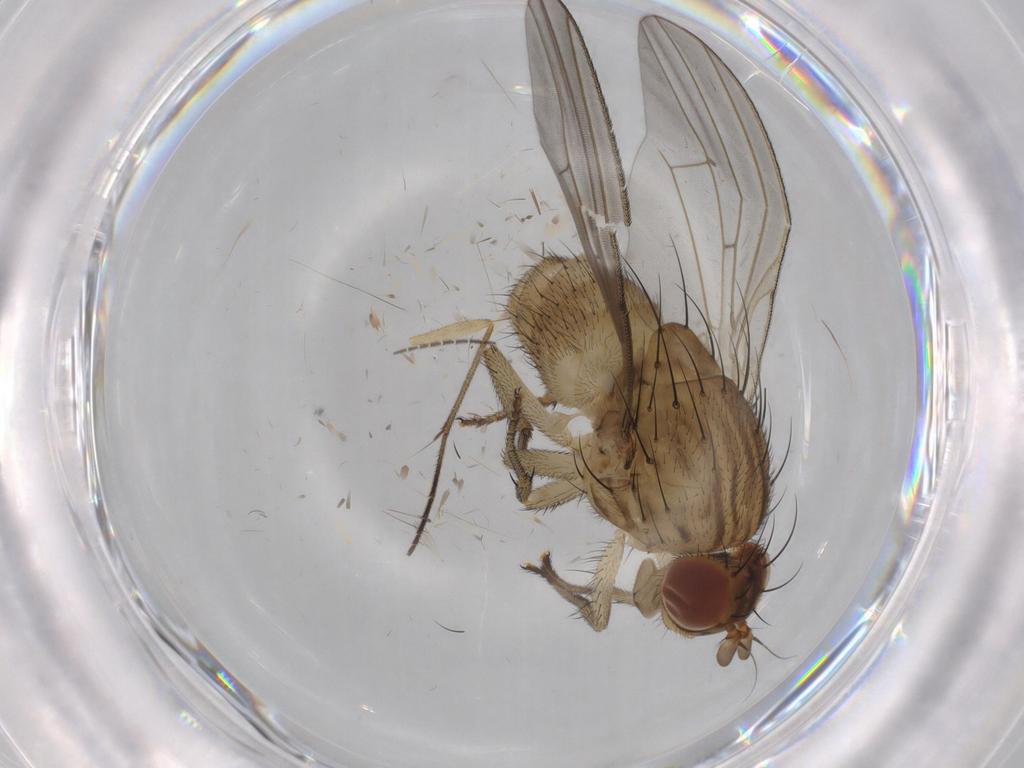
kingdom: Animalia
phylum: Arthropoda
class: Insecta
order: Diptera
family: Sciaridae
